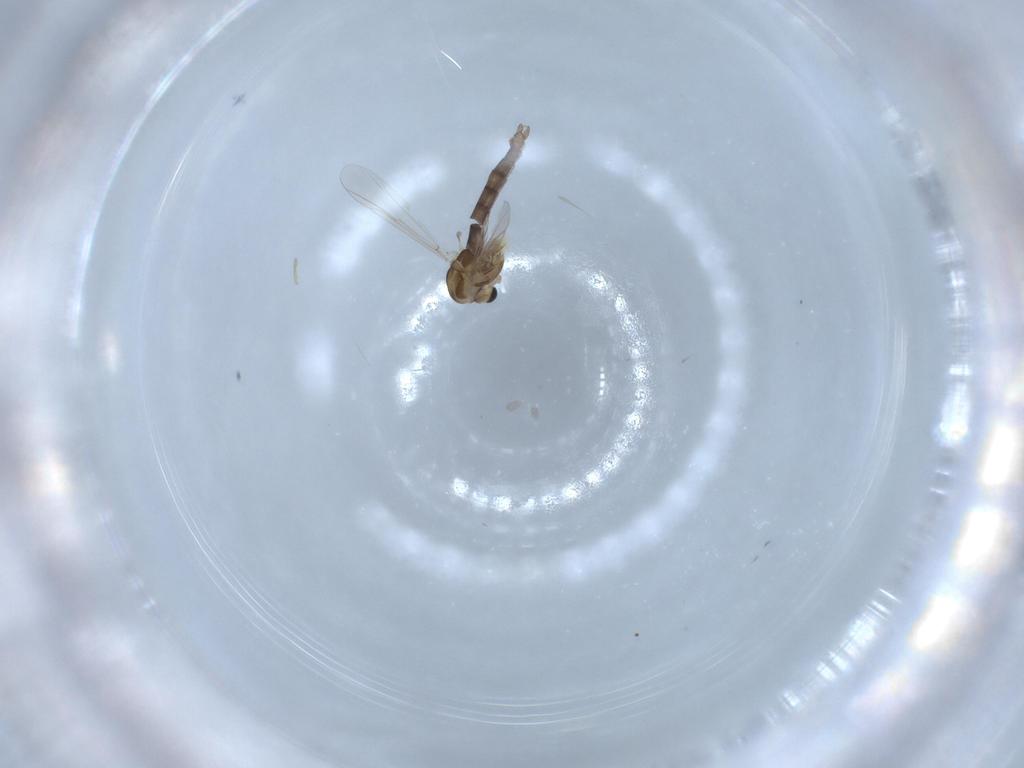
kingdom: Animalia
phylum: Arthropoda
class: Insecta
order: Diptera
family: Chironomidae
